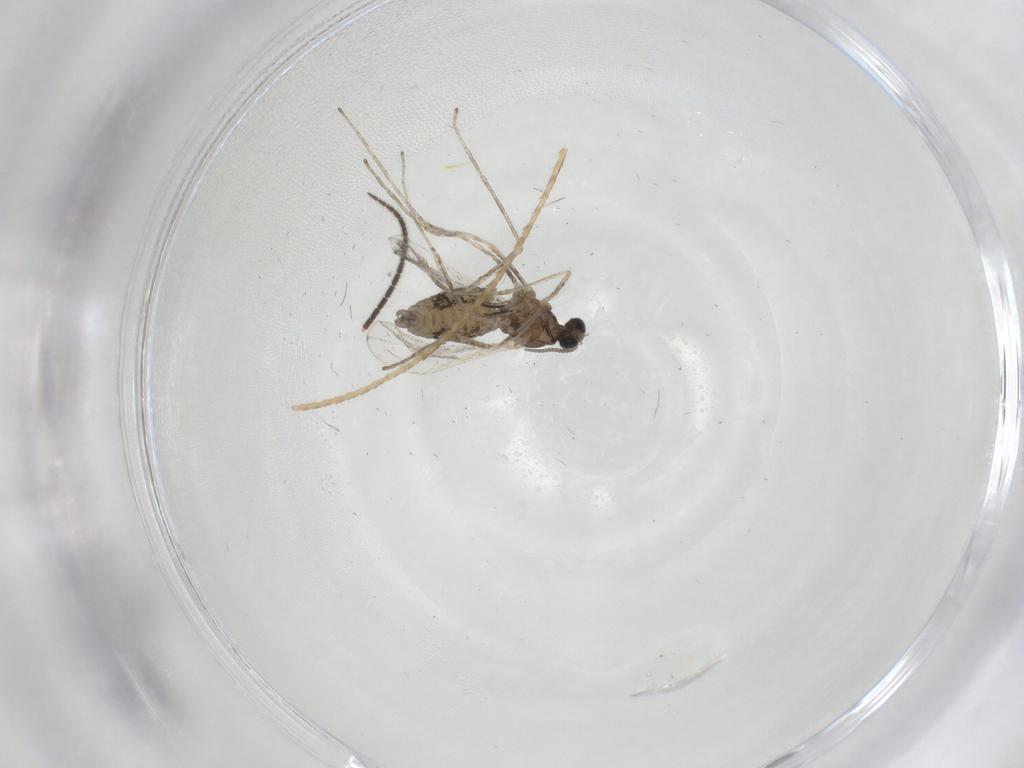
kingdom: Animalia
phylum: Arthropoda
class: Insecta
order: Diptera
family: Cecidomyiidae
